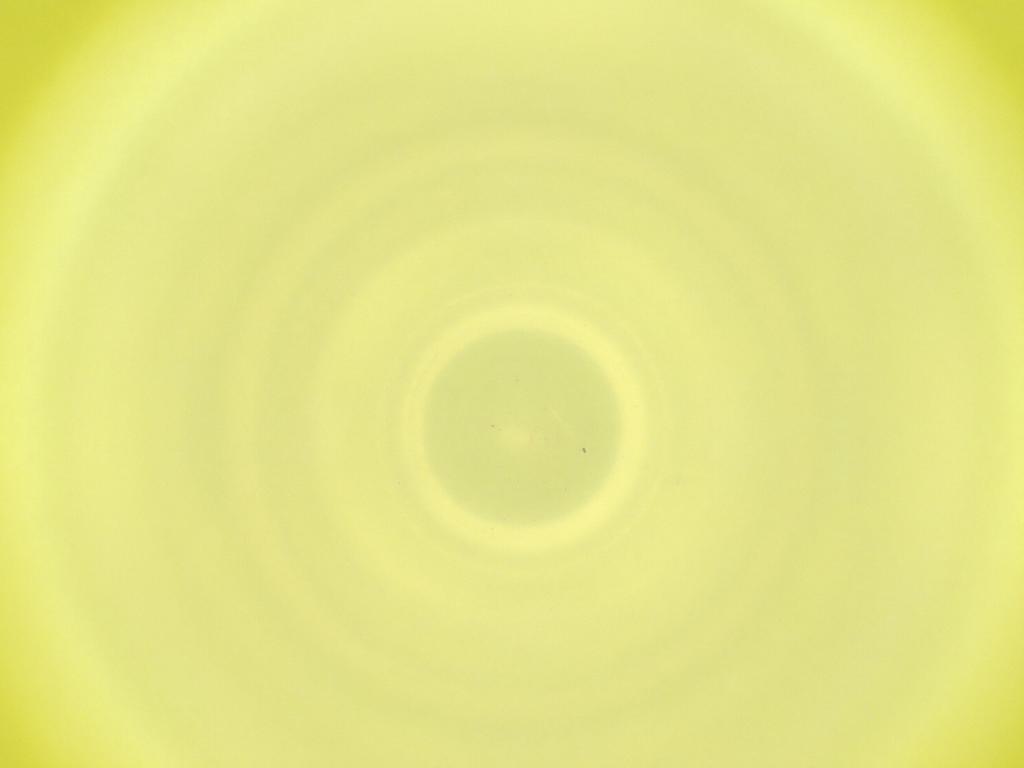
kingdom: Animalia
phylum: Arthropoda
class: Insecta
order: Diptera
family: Cecidomyiidae
